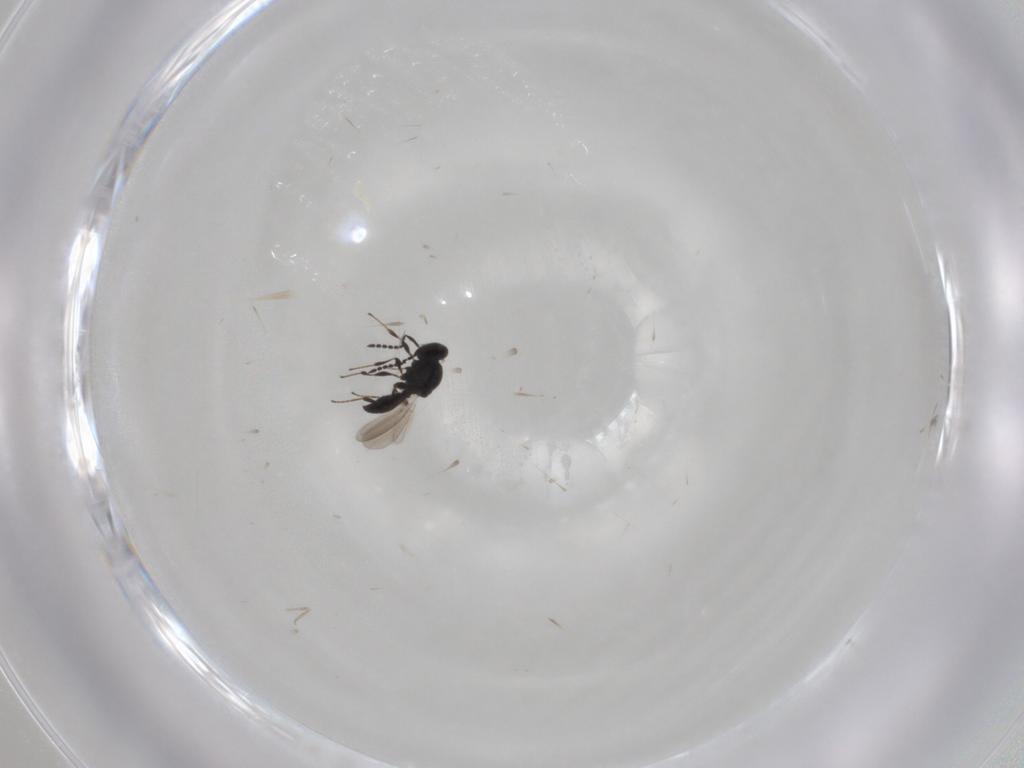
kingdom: Animalia
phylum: Arthropoda
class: Insecta
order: Hymenoptera
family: Platygastridae
